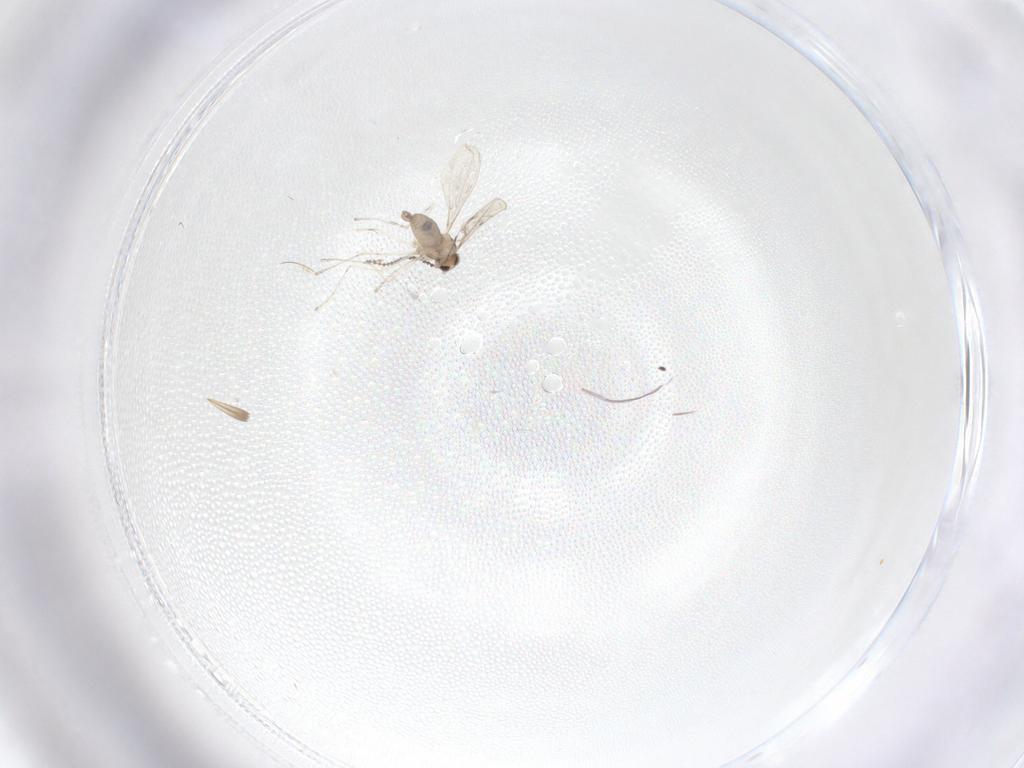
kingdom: Animalia
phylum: Arthropoda
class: Insecta
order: Diptera
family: Cecidomyiidae
